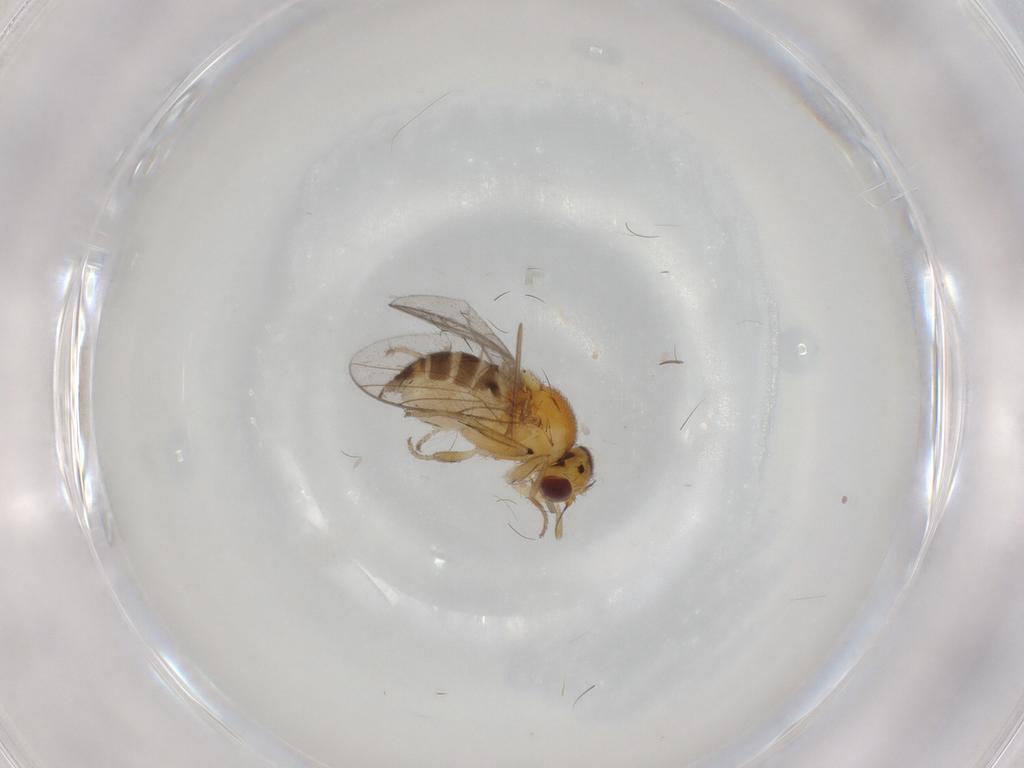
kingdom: Animalia
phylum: Arthropoda
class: Insecta
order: Diptera
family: Chloropidae
